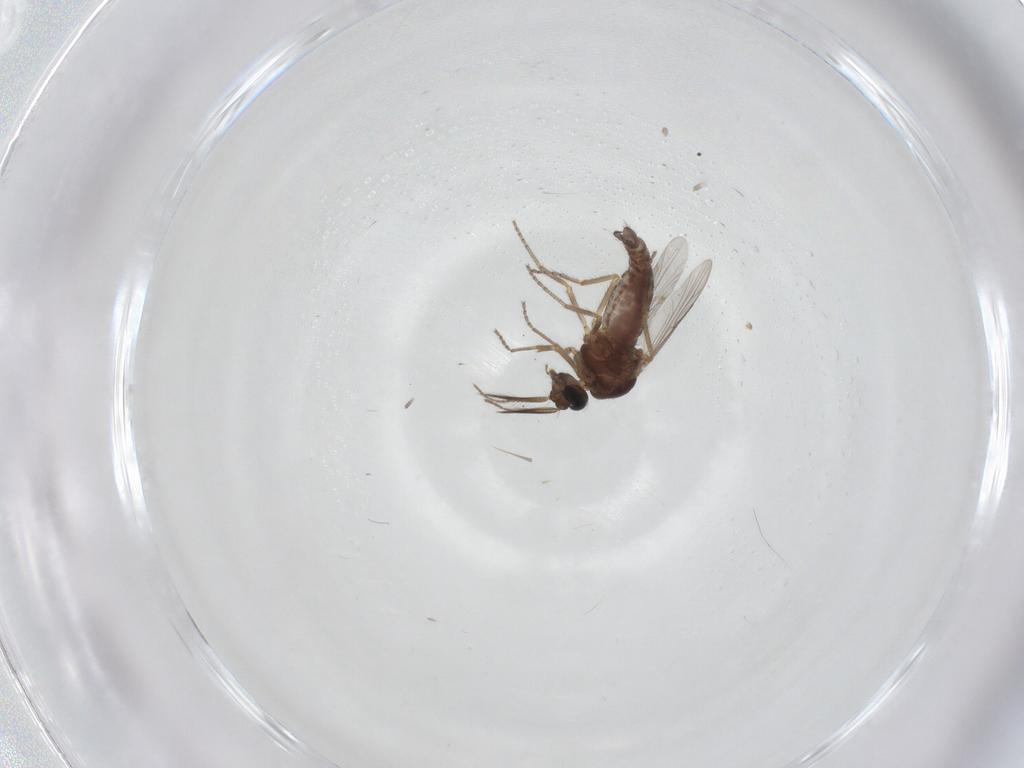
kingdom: Animalia
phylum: Arthropoda
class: Insecta
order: Diptera
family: Ceratopogonidae
